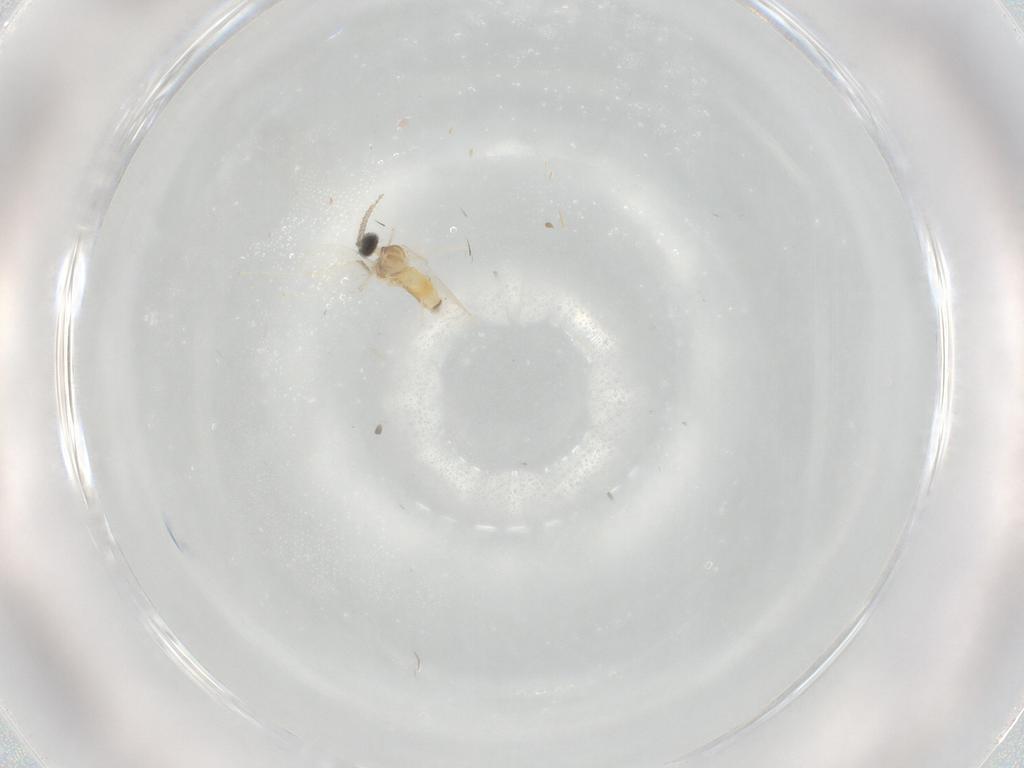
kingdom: Animalia
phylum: Arthropoda
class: Insecta
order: Diptera
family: Cecidomyiidae
